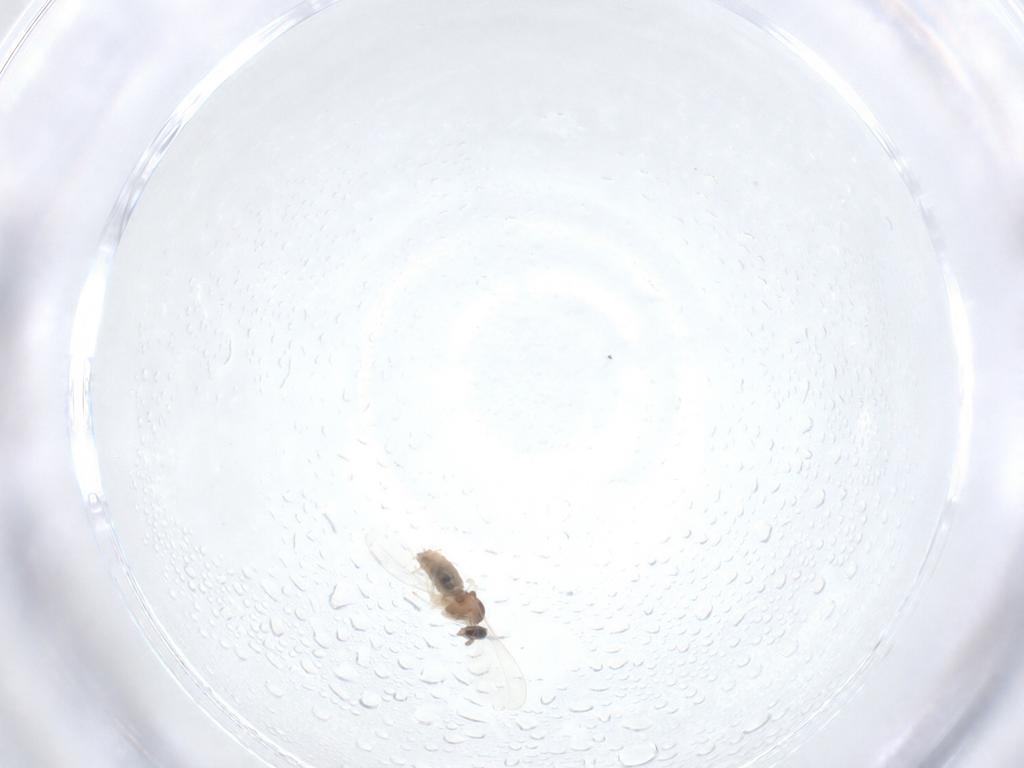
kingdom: Animalia
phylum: Arthropoda
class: Insecta
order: Diptera
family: Cecidomyiidae
